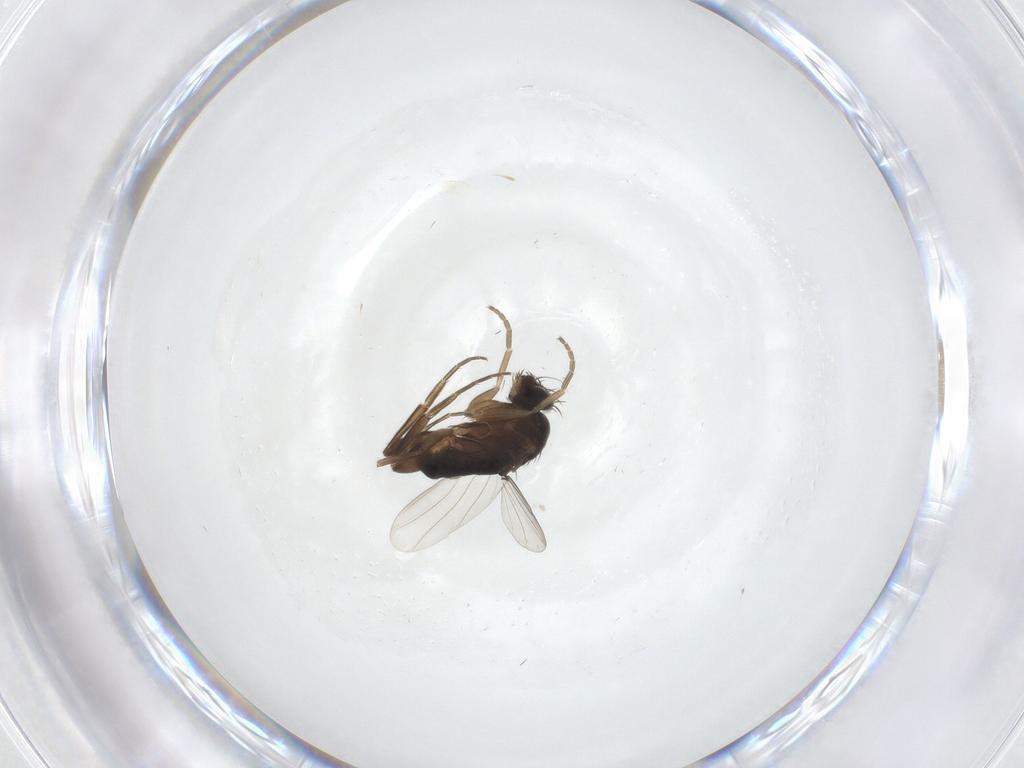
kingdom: Animalia
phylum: Arthropoda
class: Insecta
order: Diptera
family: Phoridae
